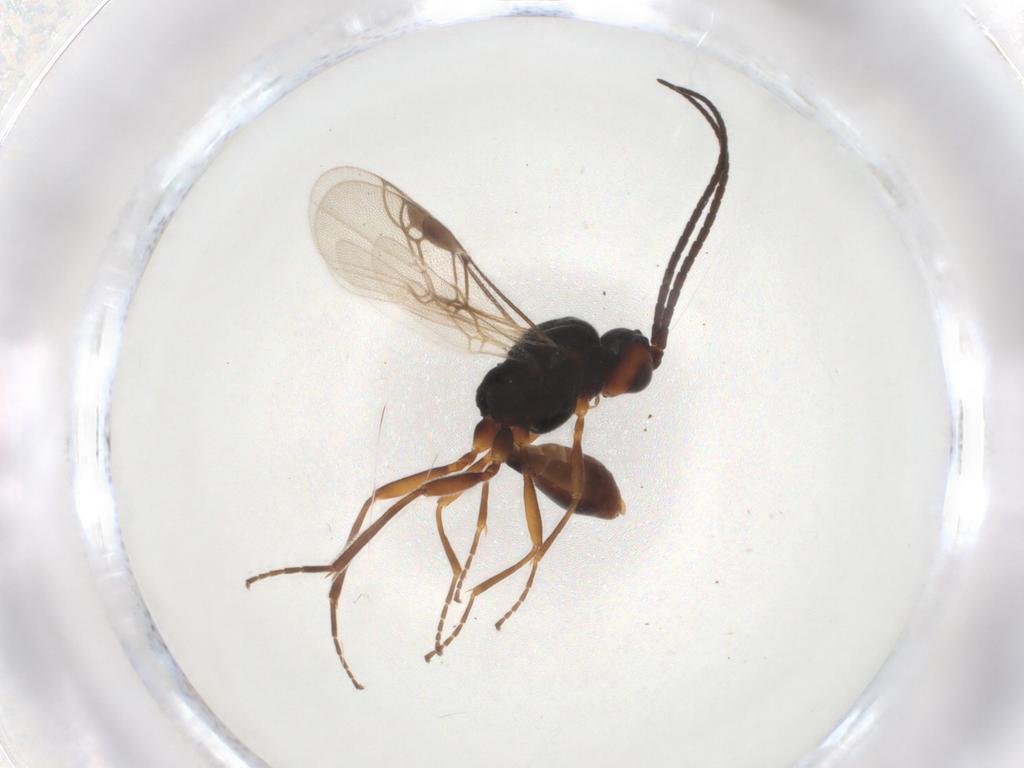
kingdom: Animalia
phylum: Arthropoda
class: Insecta
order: Hymenoptera
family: Braconidae
